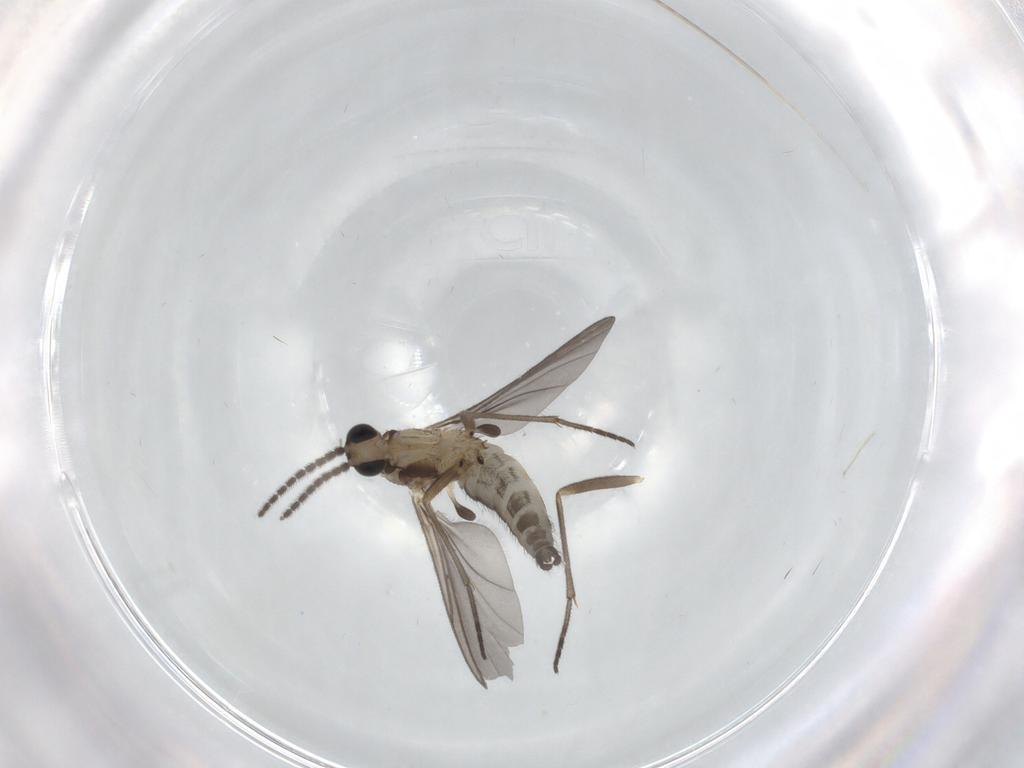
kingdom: Animalia
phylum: Arthropoda
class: Insecta
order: Diptera
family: Sciaridae
